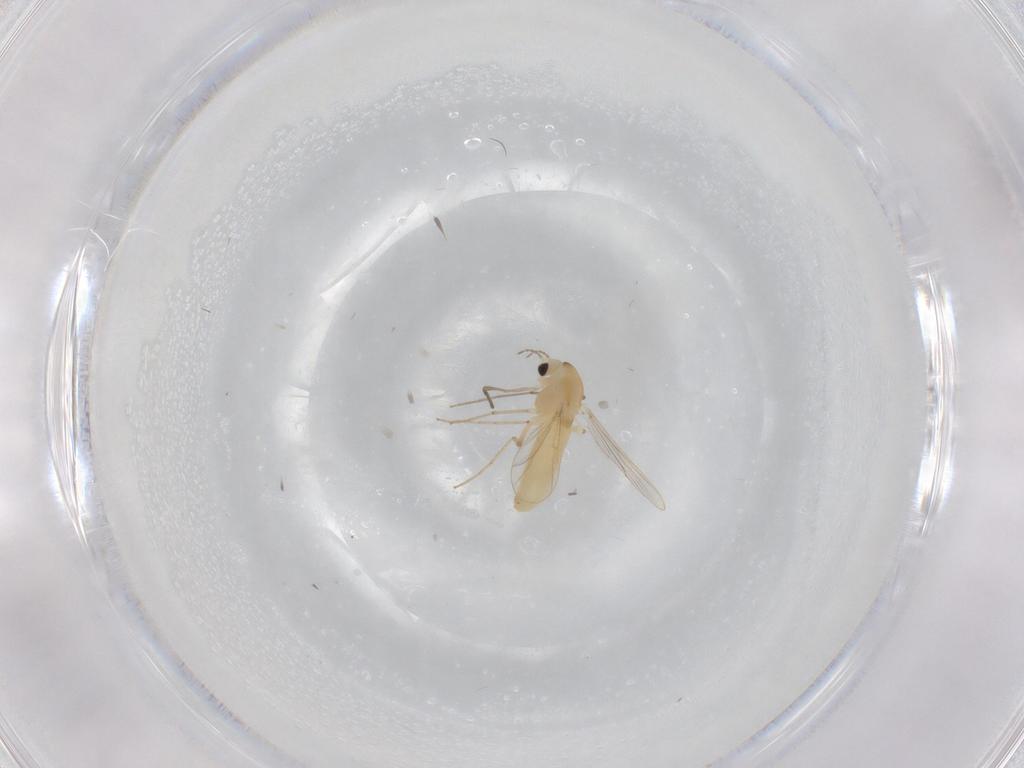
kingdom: Animalia
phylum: Arthropoda
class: Insecta
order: Diptera
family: Chironomidae
